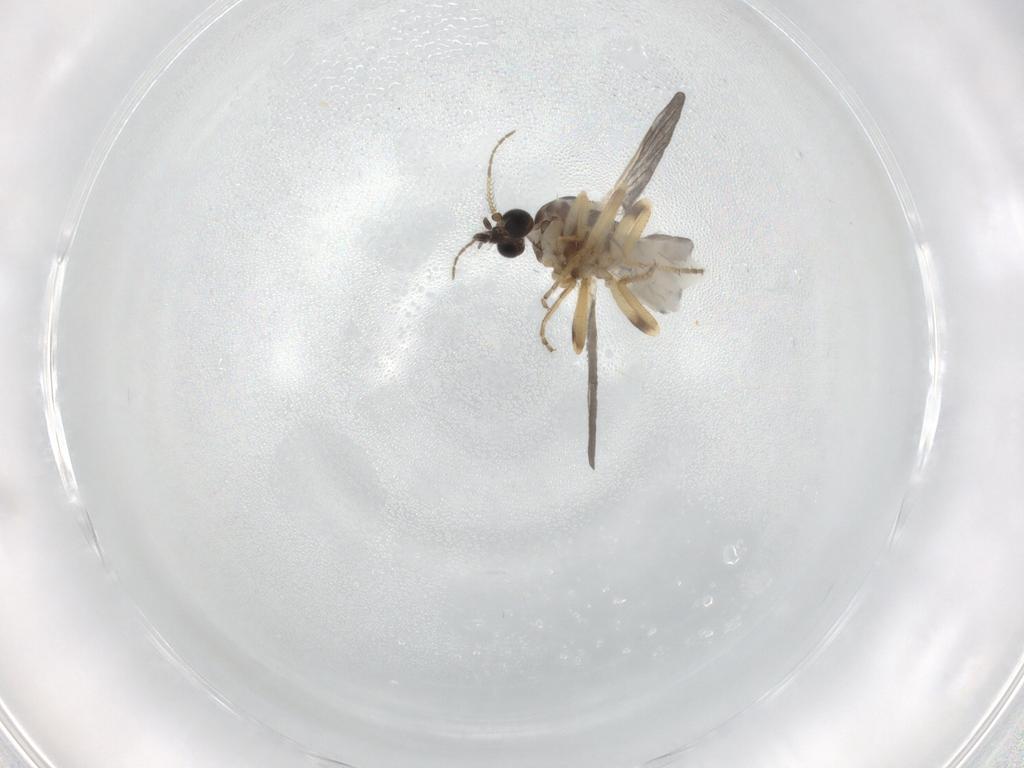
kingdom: Animalia
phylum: Arthropoda
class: Insecta
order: Diptera
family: Ceratopogonidae
